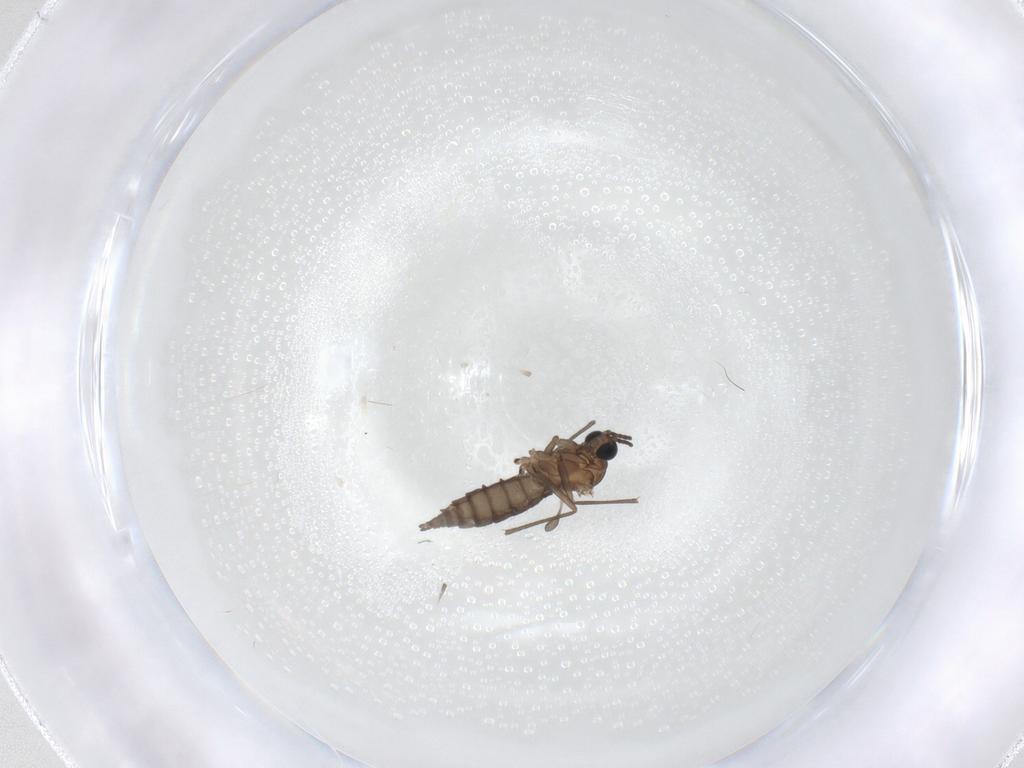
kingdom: Animalia
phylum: Arthropoda
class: Insecta
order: Diptera
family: Sciaridae
